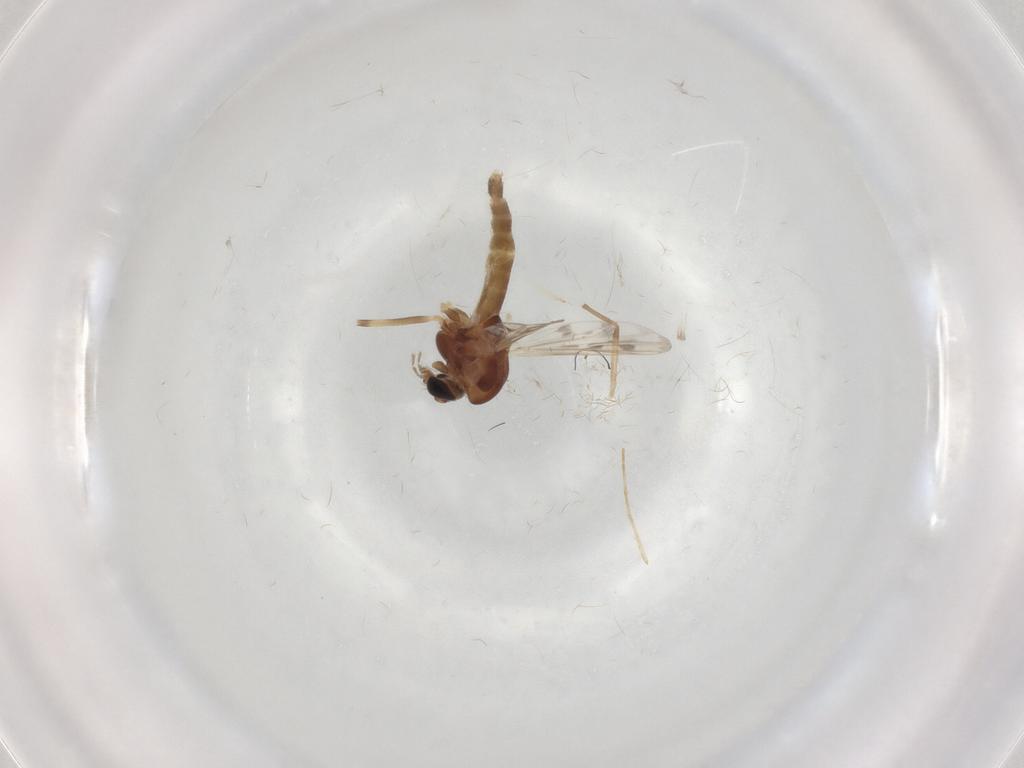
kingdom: Animalia
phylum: Arthropoda
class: Insecta
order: Diptera
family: Chironomidae
